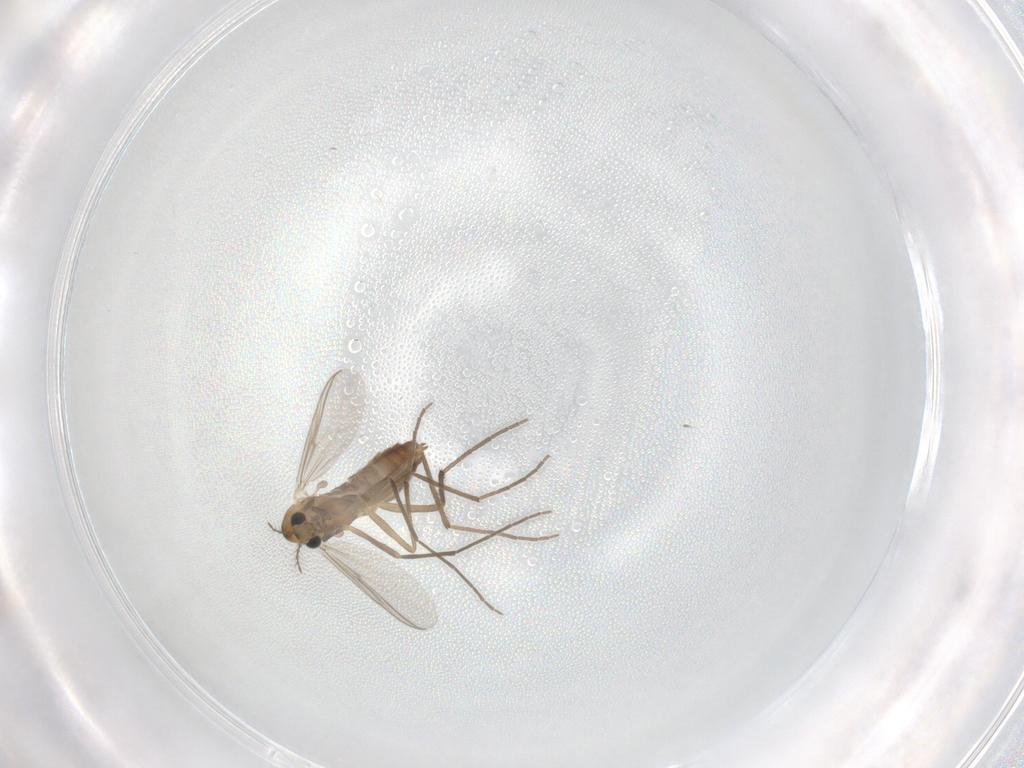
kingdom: Animalia
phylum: Arthropoda
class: Insecta
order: Diptera
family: Chironomidae
